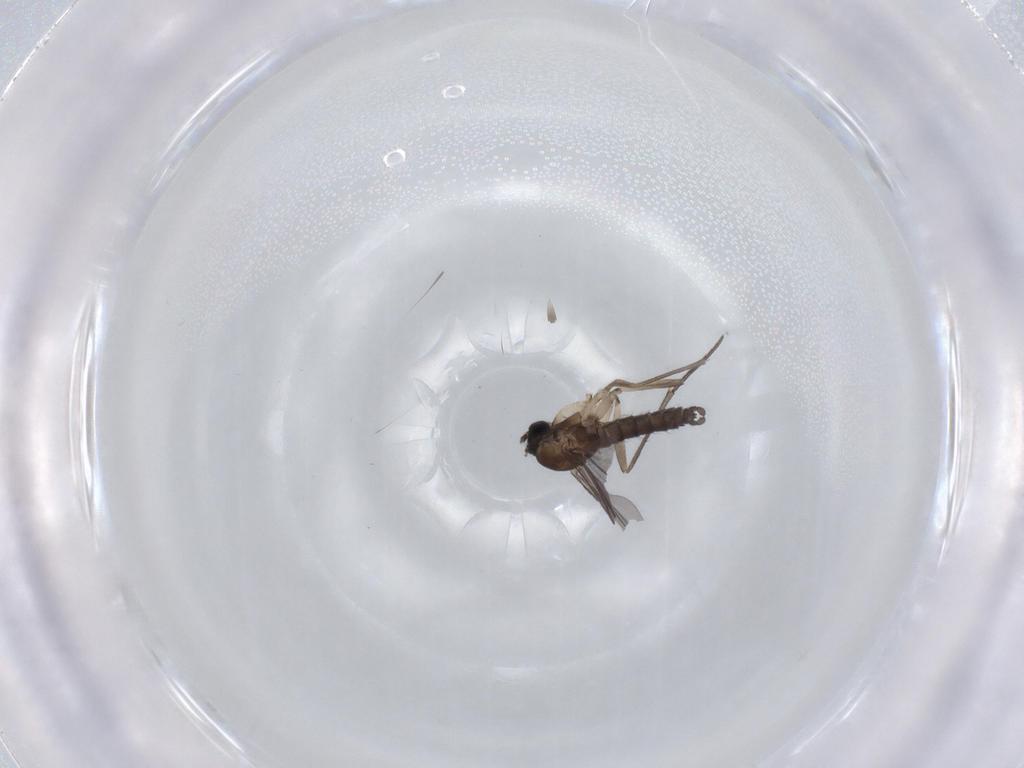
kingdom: Animalia
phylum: Arthropoda
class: Insecta
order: Diptera
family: Sciaridae
